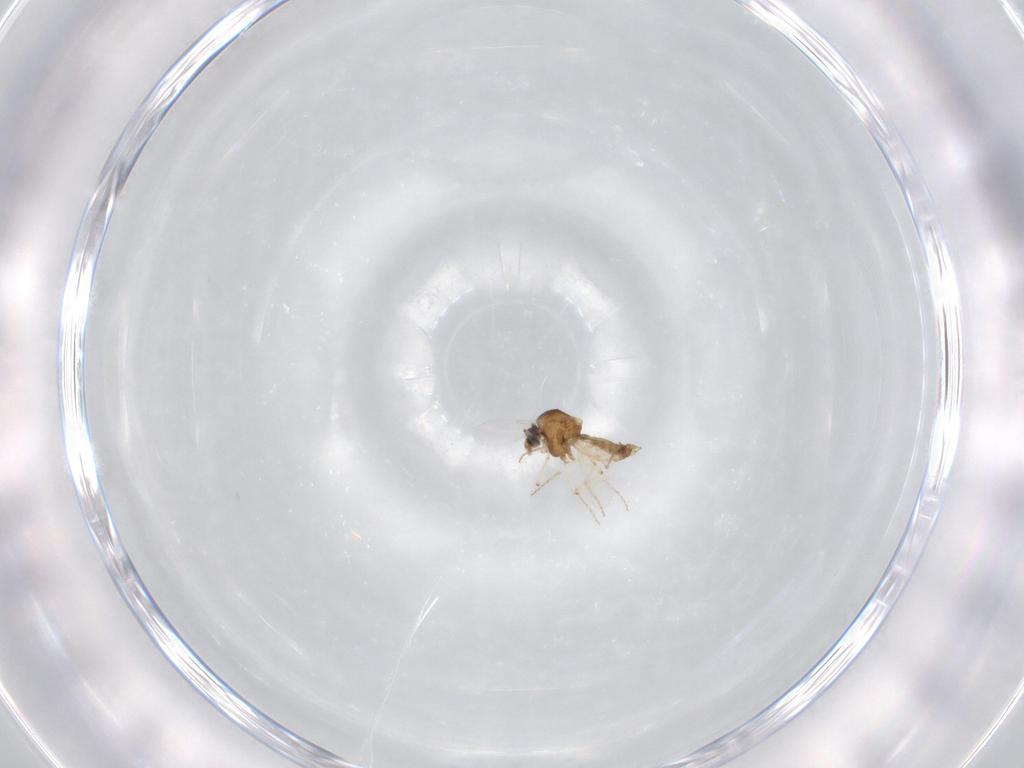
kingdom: Animalia
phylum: Arthropoda
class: Insecta
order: Diptera
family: Ceratopogonidae
